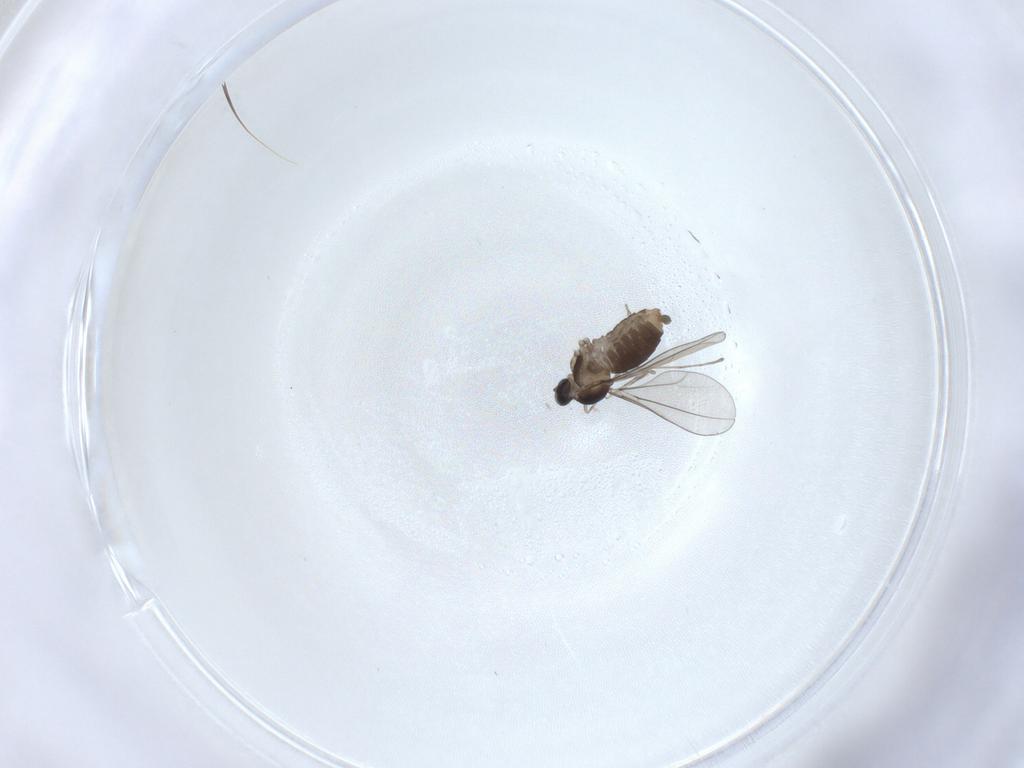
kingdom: Animalia
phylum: Arthropoda
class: Insecta
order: Diptera
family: Cecidomyiidae
